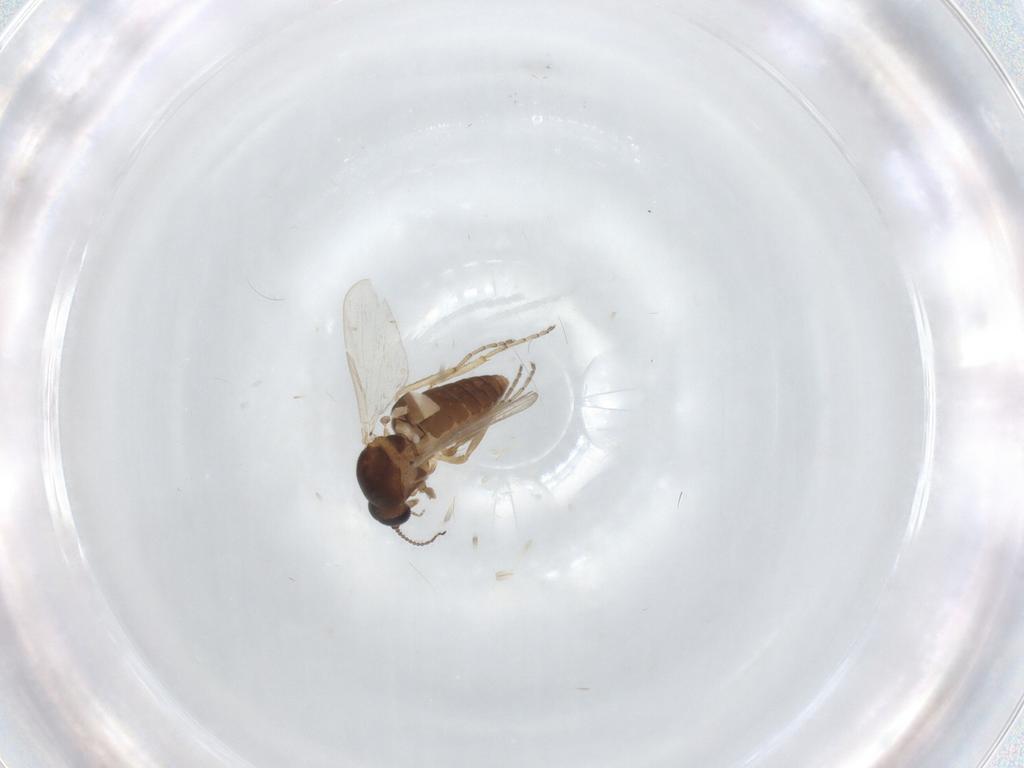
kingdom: Animalia
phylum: Arthropoda
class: Insecta
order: Diptera
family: Ceratopogonidae
